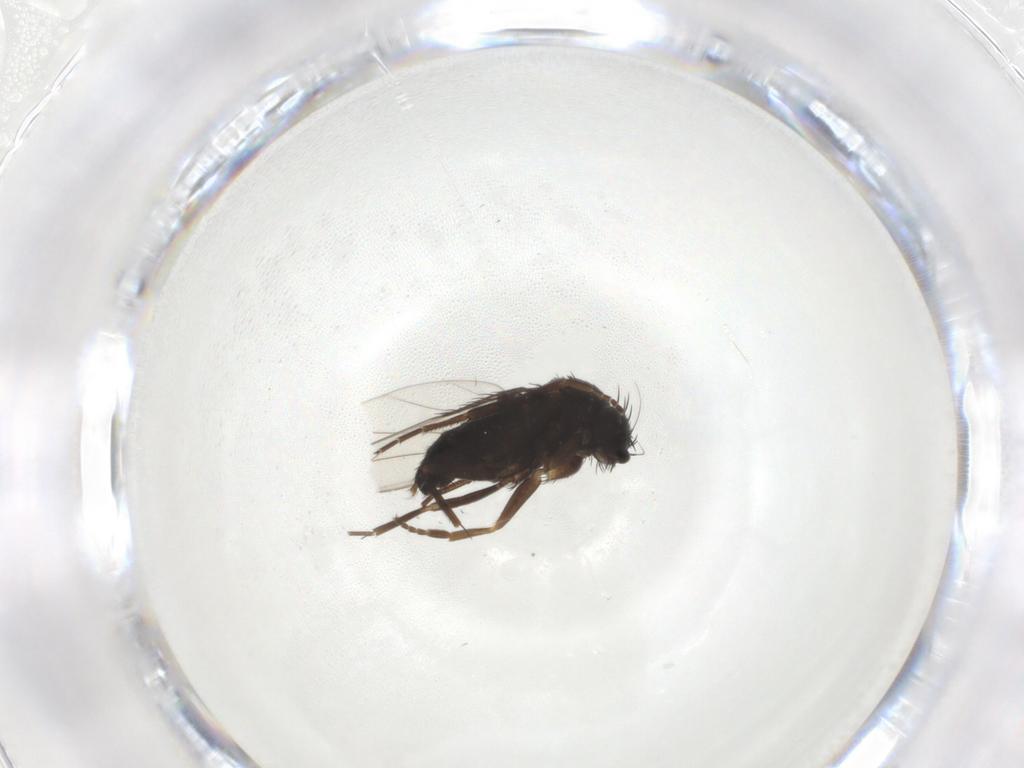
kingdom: Animalia
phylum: Arthropoda
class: Insecta
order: Diptera
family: Phoridae
